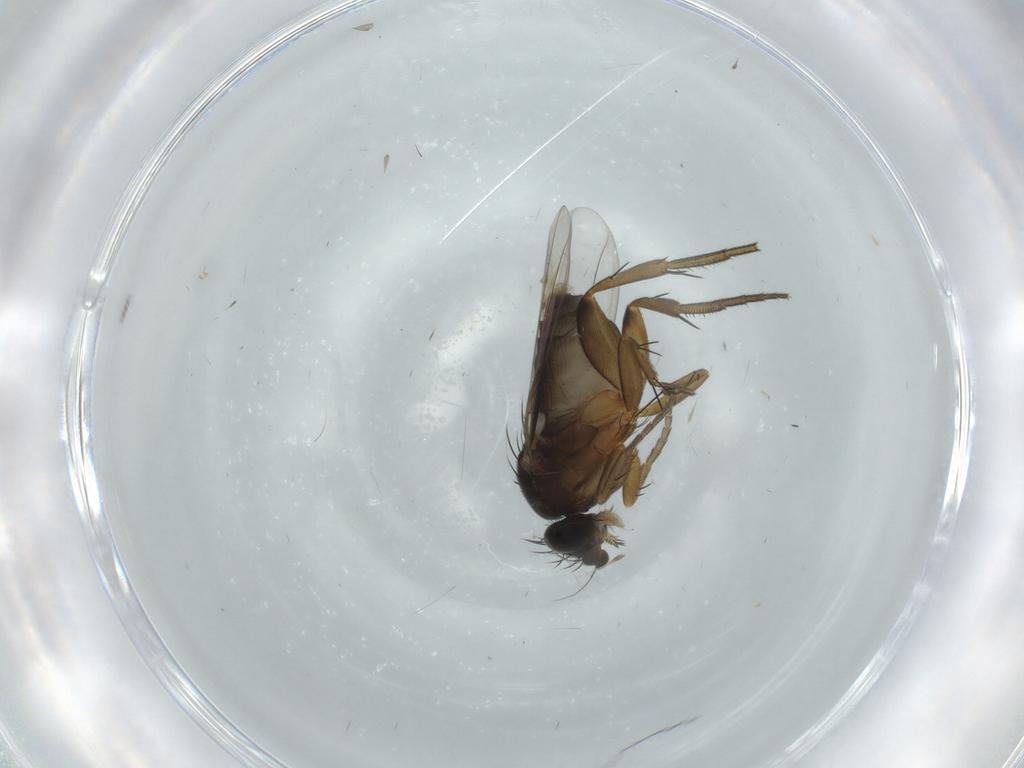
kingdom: Animalia
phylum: Arthropoda
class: Insecta
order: Diptera
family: Phoridae
